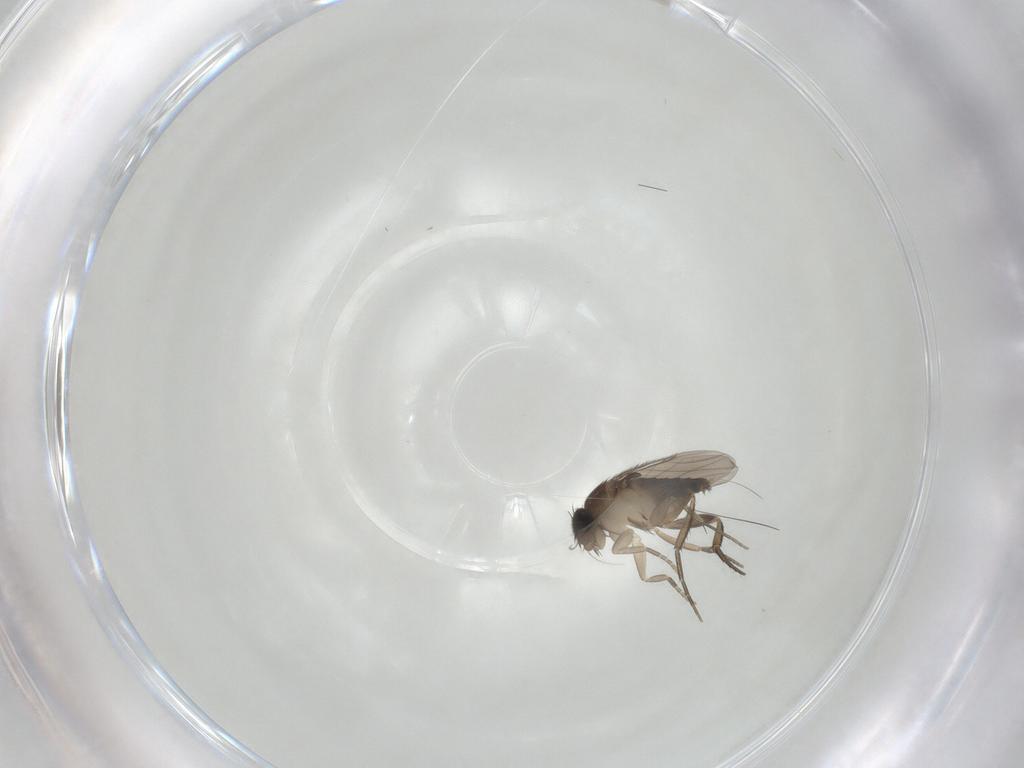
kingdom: Animalia
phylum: Arthropoda
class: Insecta
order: Diptera
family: Phoridae
